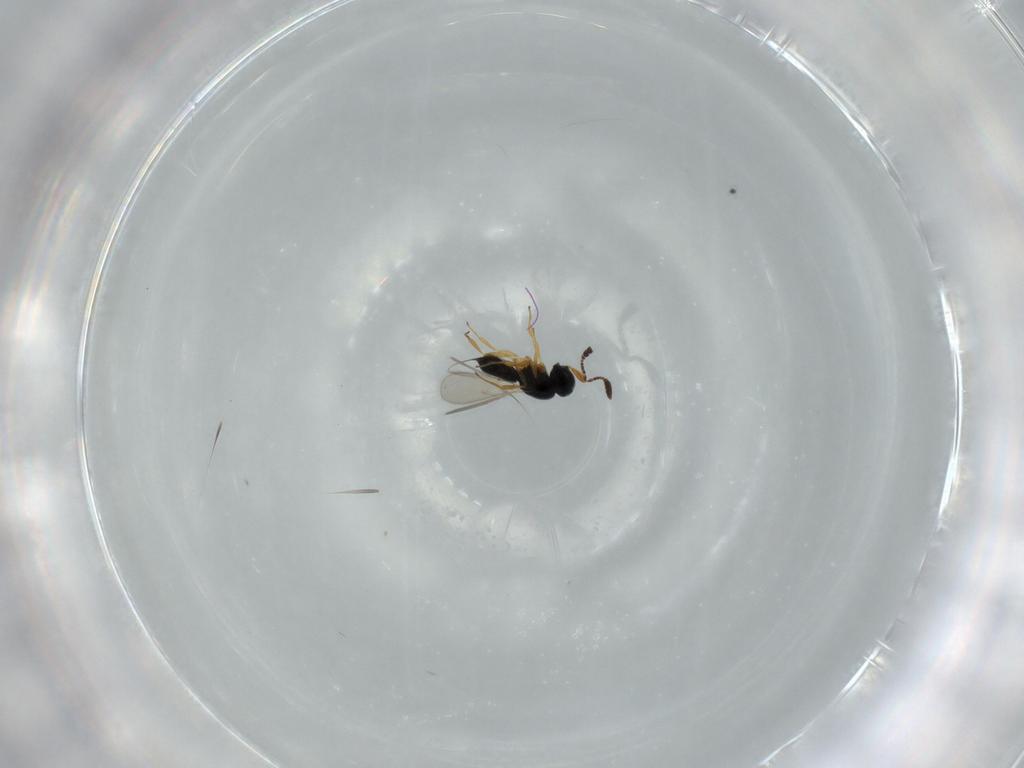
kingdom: Animalia
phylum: Arthropoda
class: Insecta
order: Hymenoptera
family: Scelionidae
